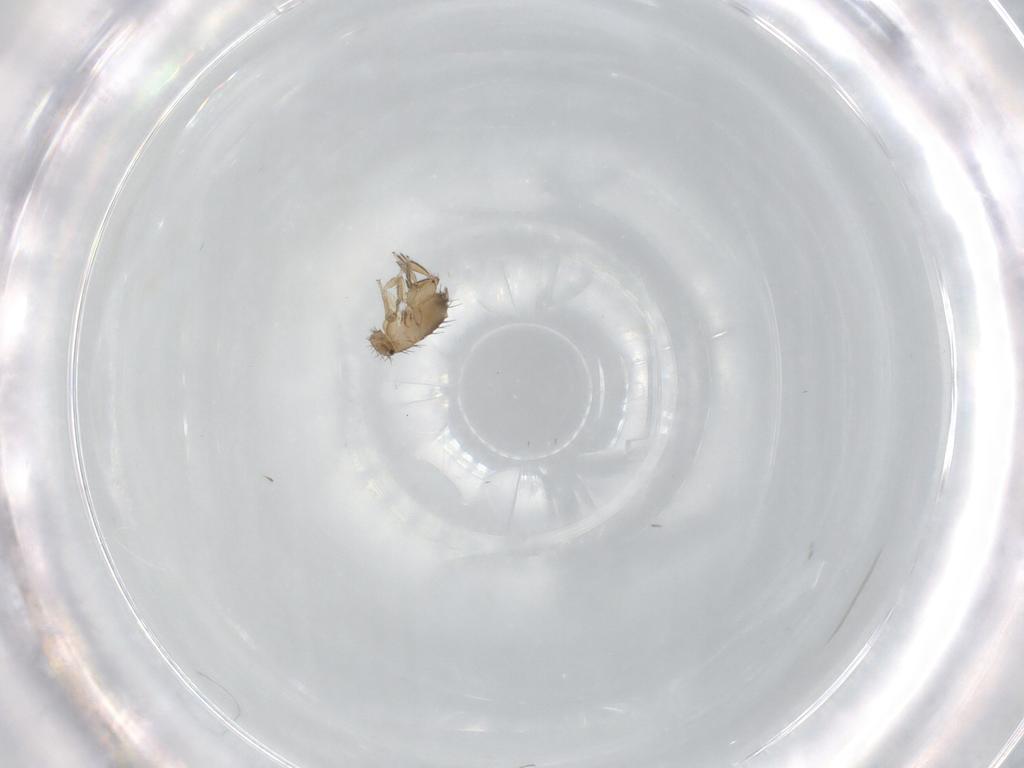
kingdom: Animalia
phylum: Arthropoda
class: Insecta
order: Diptera
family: Phoridae
